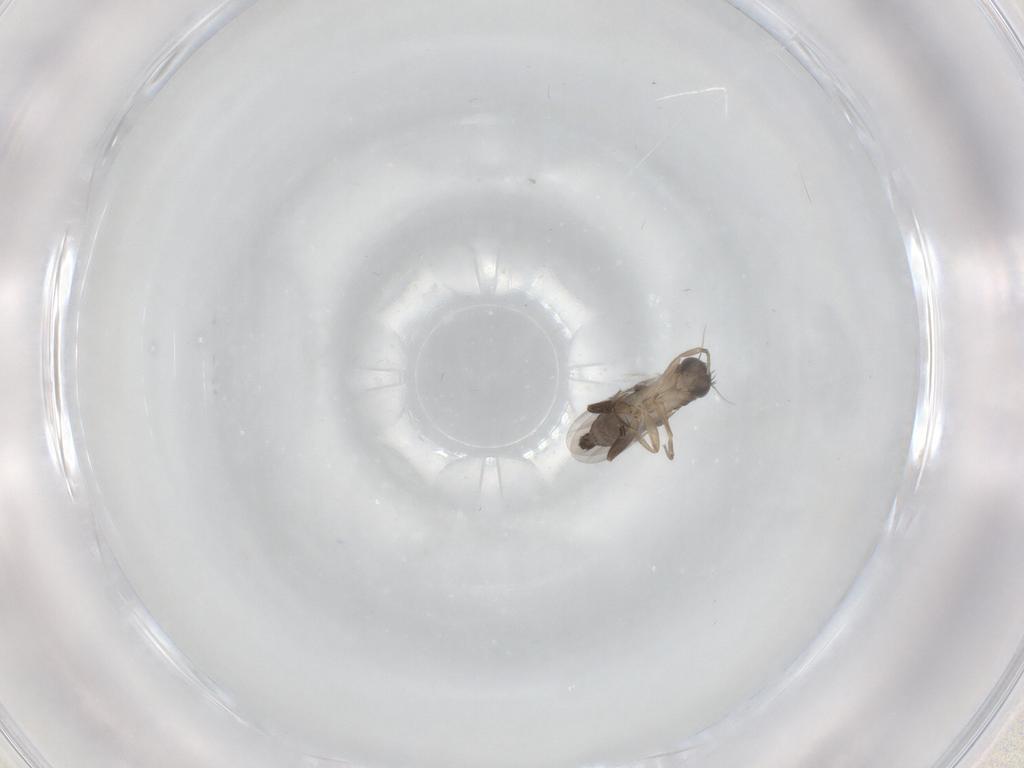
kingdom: Animalia
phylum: Arthropoda
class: Insecta
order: Diptera
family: Phoridae
